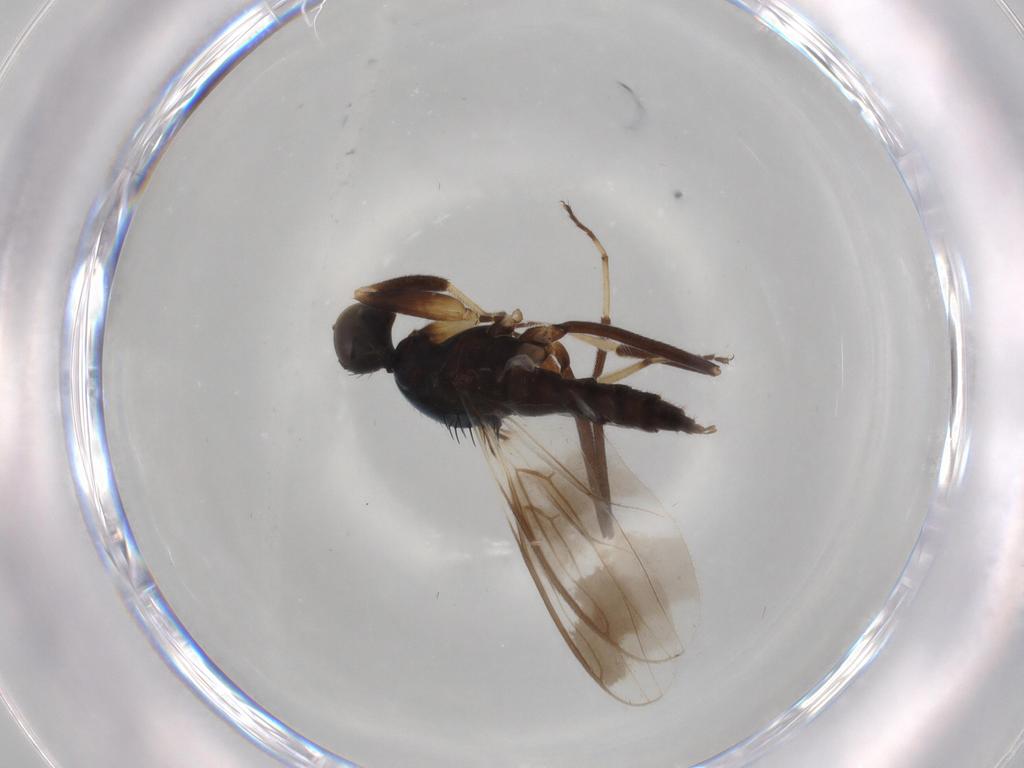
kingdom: Animalia
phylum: Arthropoda
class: Insecta
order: Diptera
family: Hybotidae
